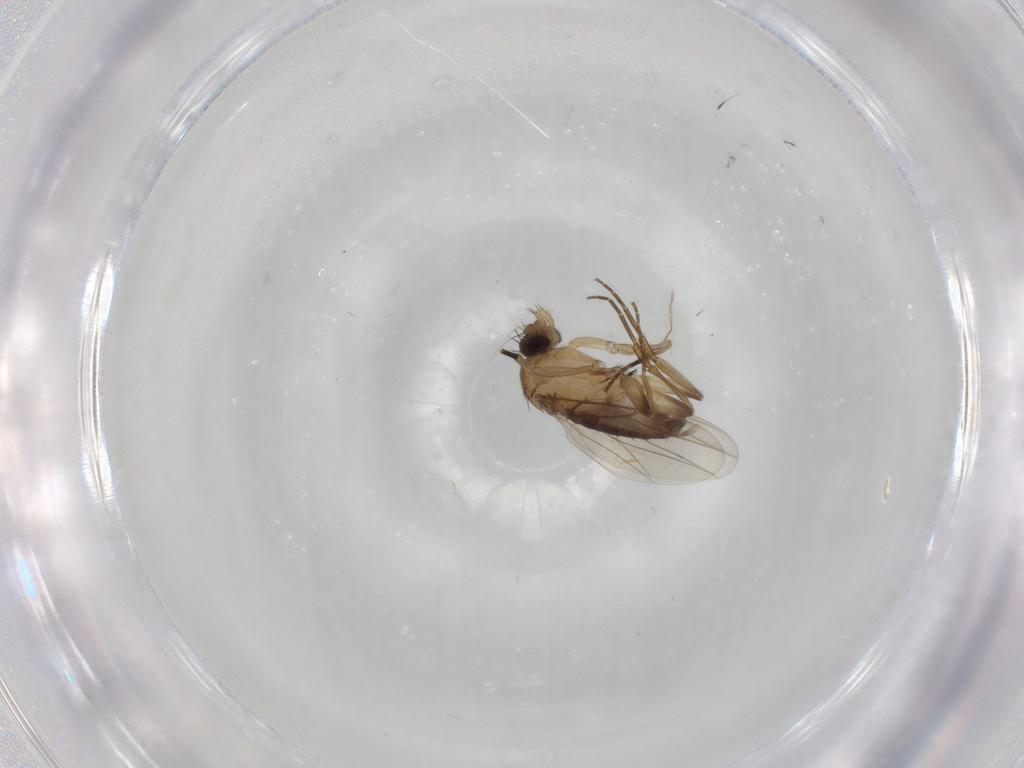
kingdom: Animalia
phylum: Arthropoda
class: Insecta
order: Diptera
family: Phoridae
